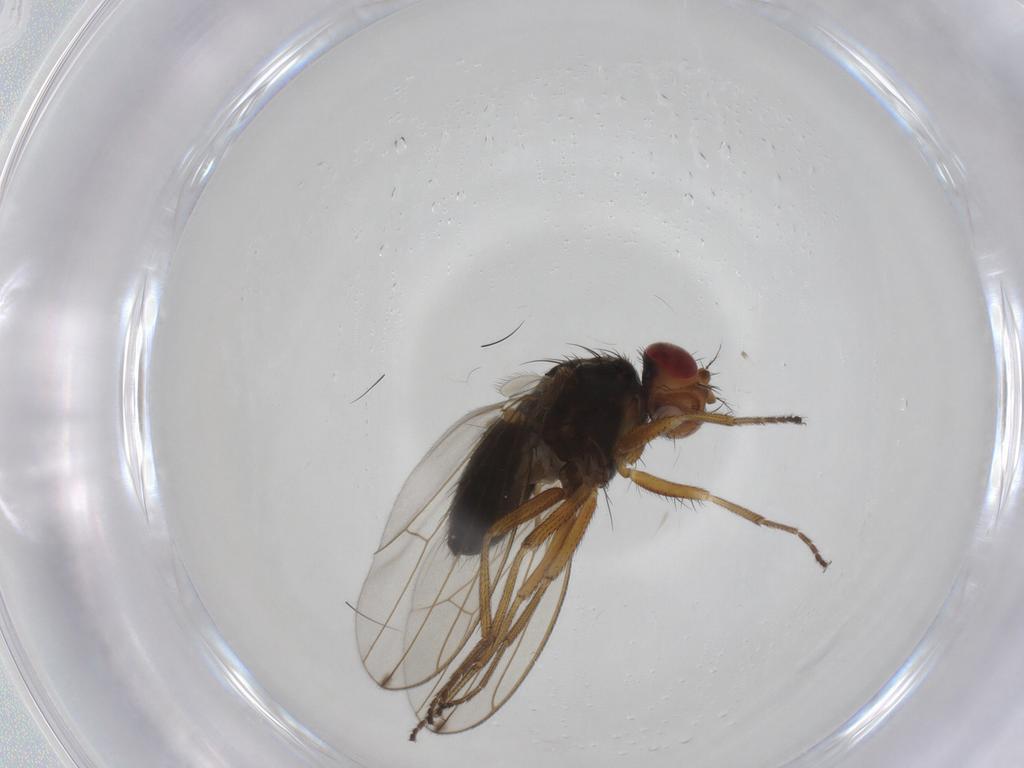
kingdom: Animalia
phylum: Arthropoda
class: Insecta
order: Diptera
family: Drosophilidae
